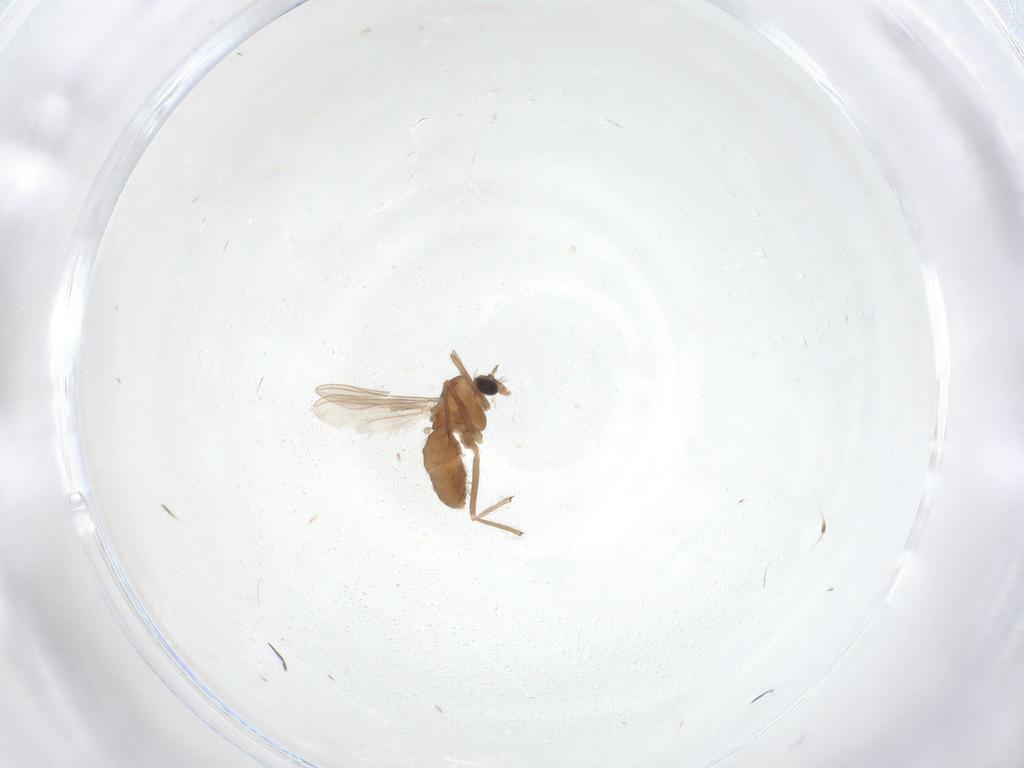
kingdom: Animalia
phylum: Arthropoda
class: Insecta
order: Diptera
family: Chironomidae
